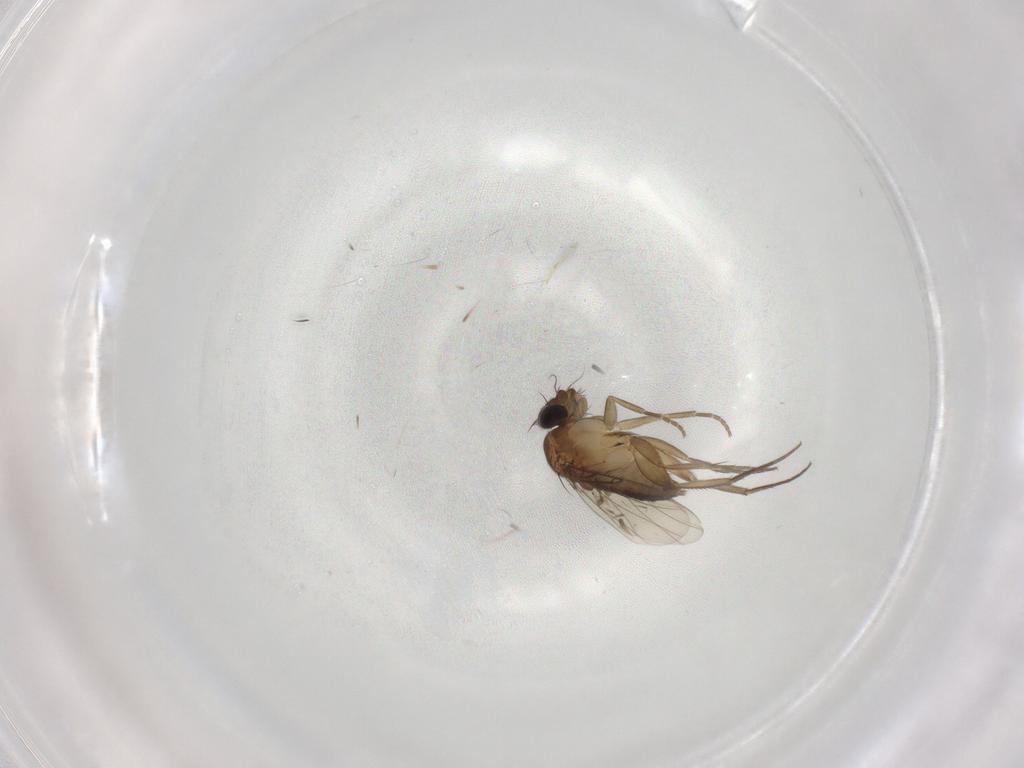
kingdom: Animalia
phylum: Arthropoda
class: Insecta
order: Diptera
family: Phoridae
